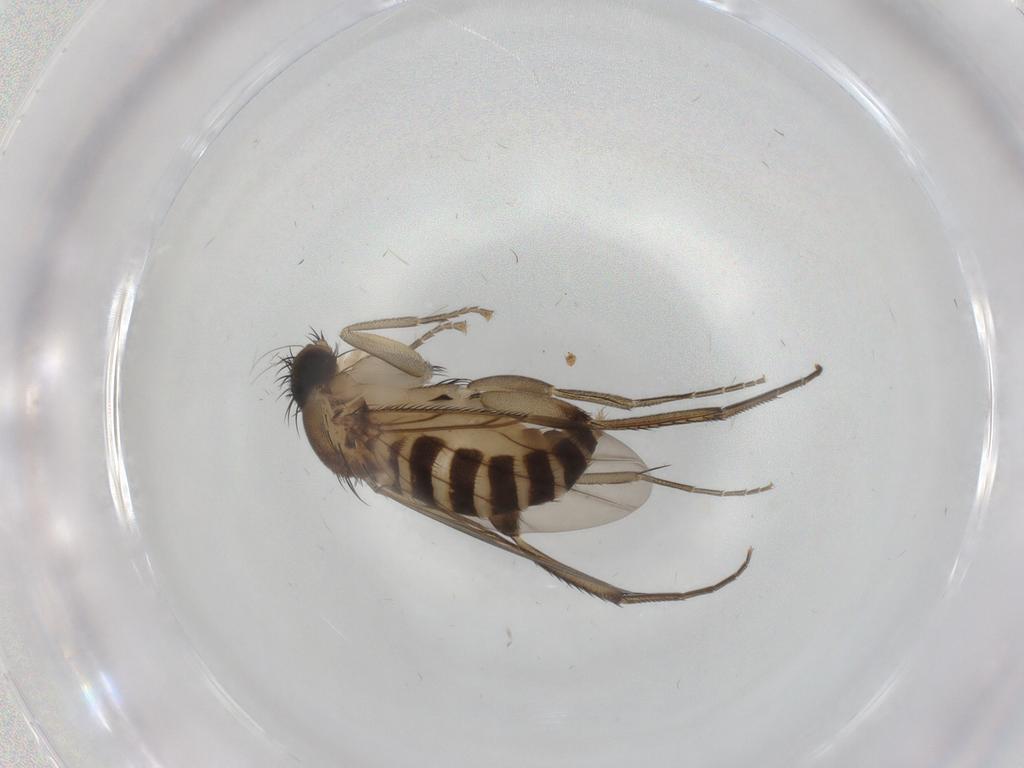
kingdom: Animalia
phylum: Arthropoda
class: Insecta
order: Diptera
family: Phoridae
